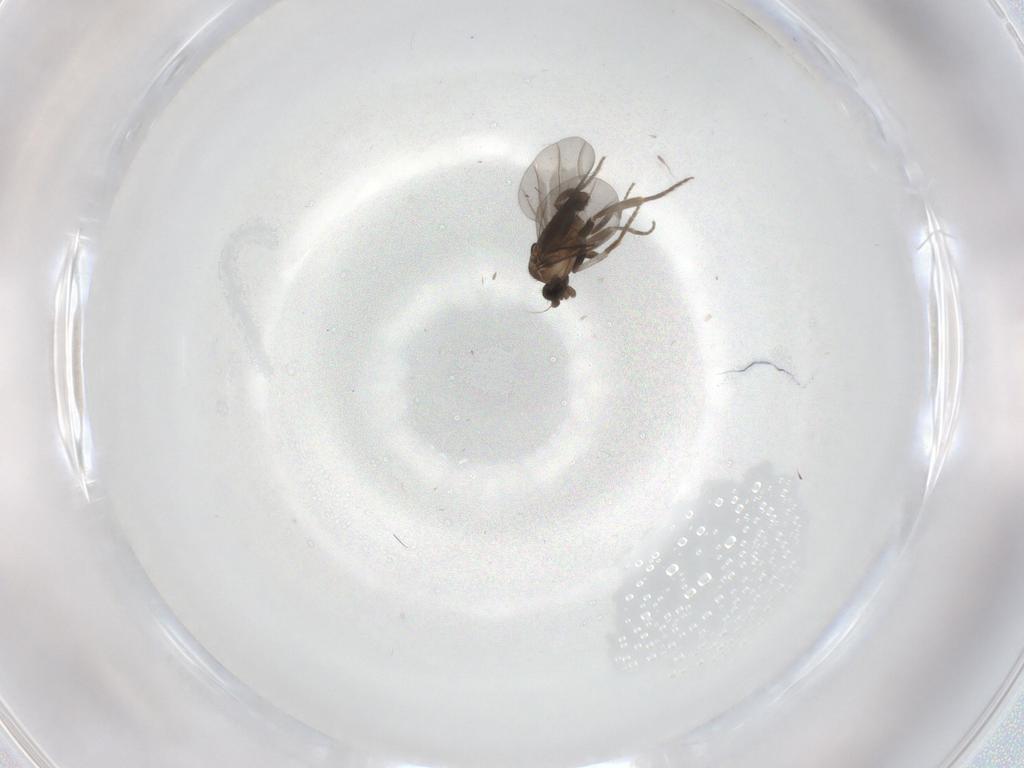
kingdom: Animalia
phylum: Arthropoda
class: Insecta
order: Diptera
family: Phoridae
